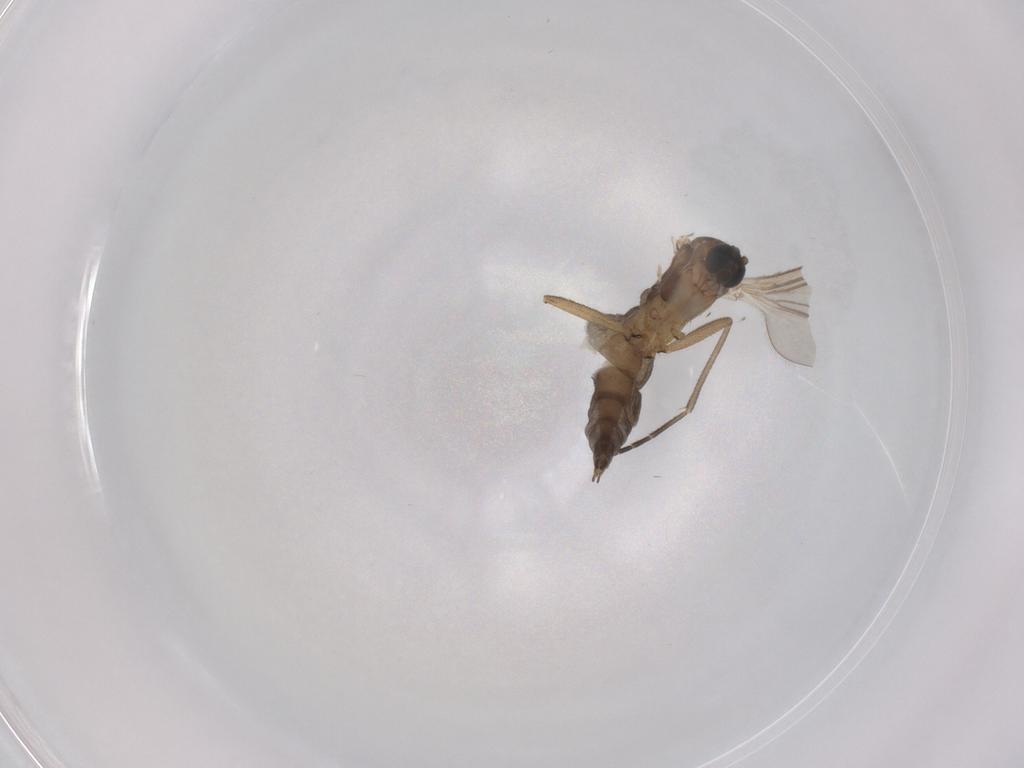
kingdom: Animalia
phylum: Arthropoda
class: Insecta
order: Diptera
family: Sciaridae
